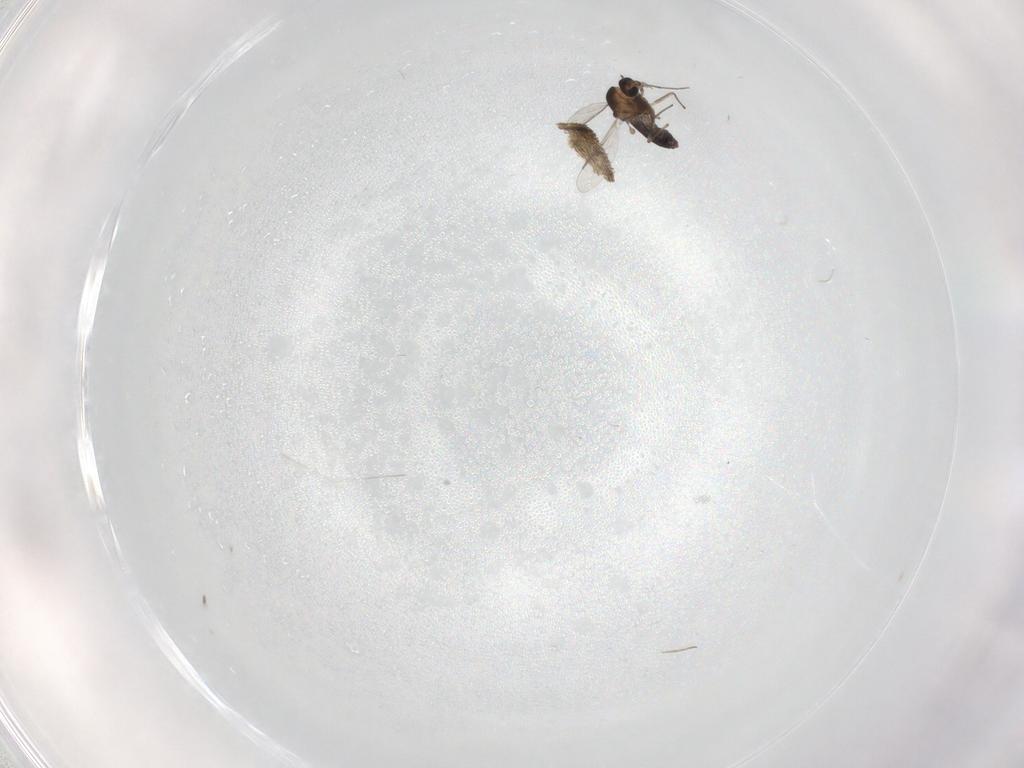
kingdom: Animalia
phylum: Arthropoda
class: Insecta
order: Diptera
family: Chironomidae
